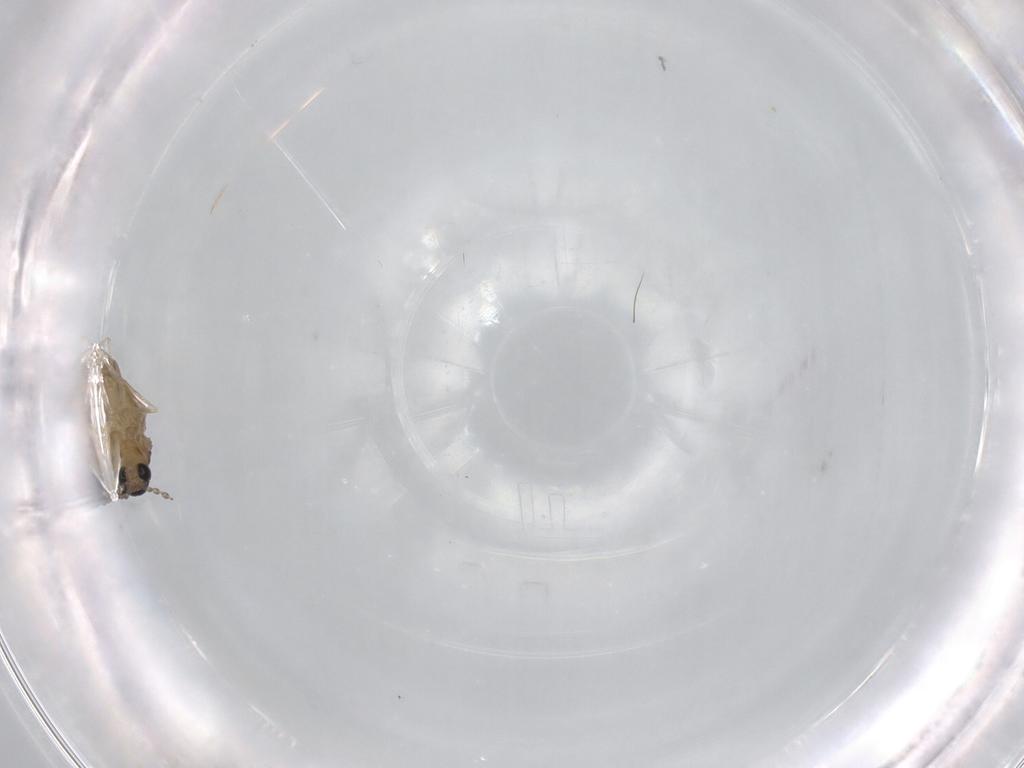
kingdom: Animalia
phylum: Arthropoda
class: Insecta
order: Diptera
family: Cecidomyiidae
